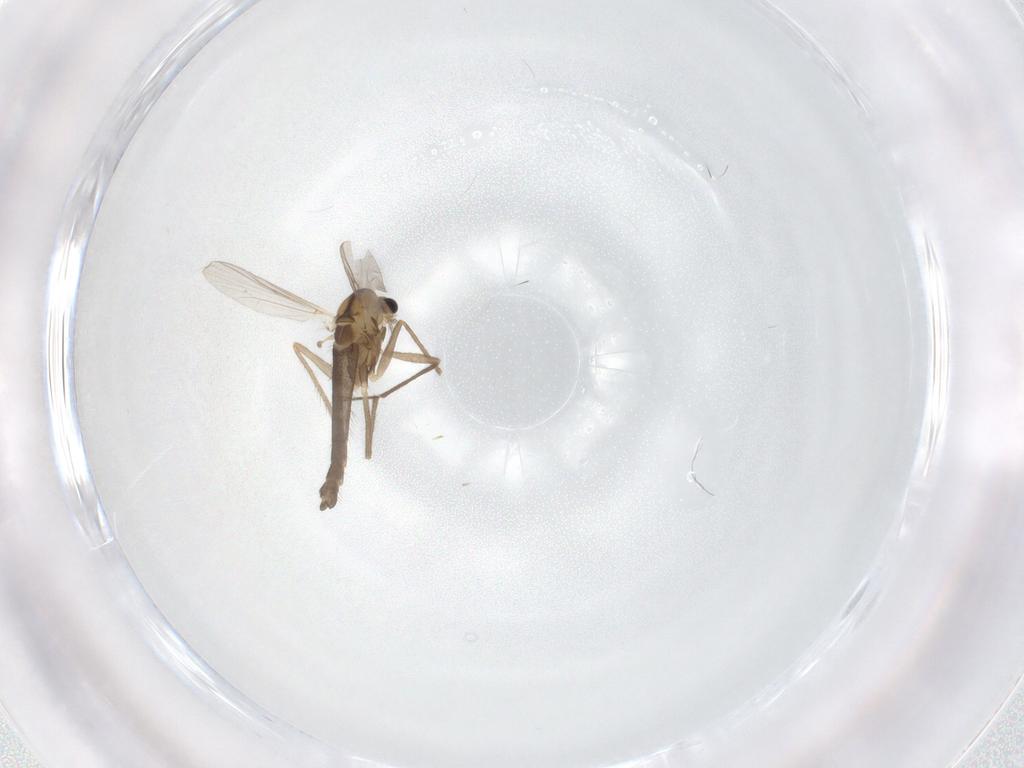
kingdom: Animalia
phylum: Arthropoda
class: Insecta
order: Diptera
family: Chironomidae
